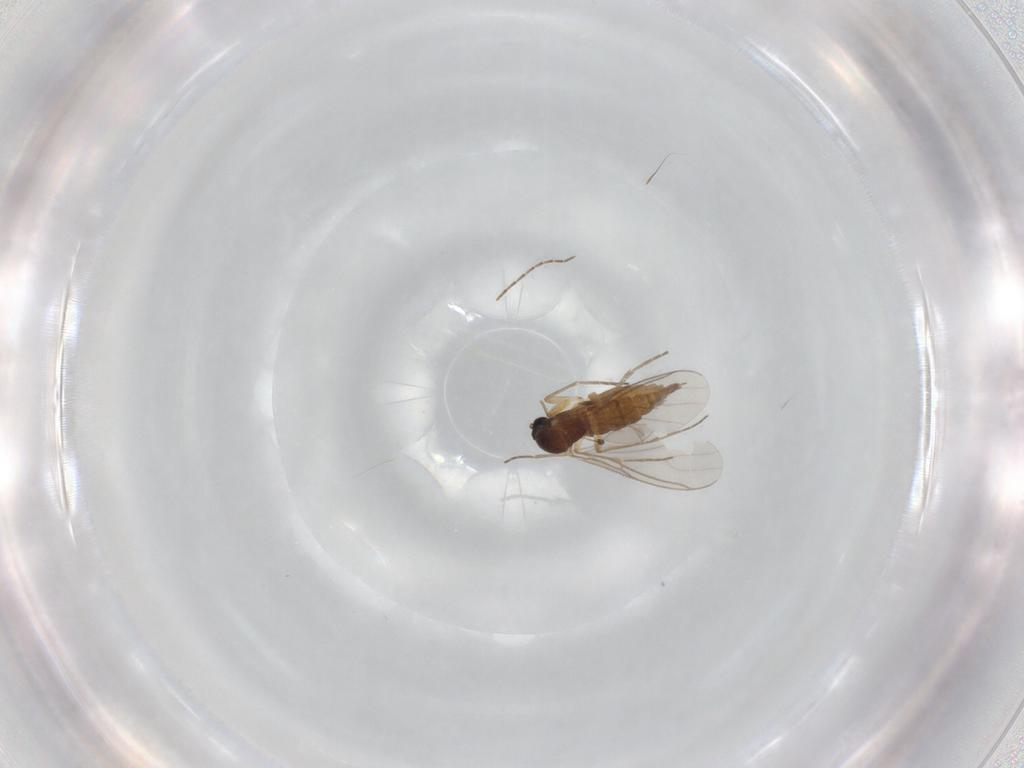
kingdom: Animalia
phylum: Arthropoda
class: Insecta
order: Diptera
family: Sciaridae
